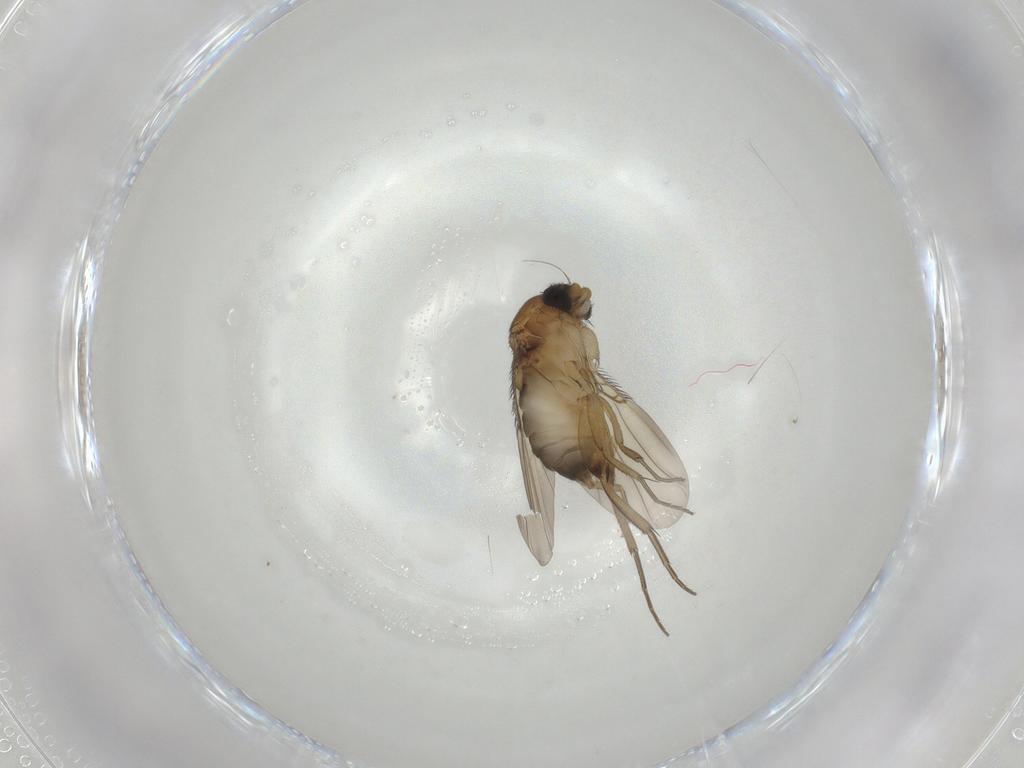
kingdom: Animalia
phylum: Arthropoda
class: Insecta
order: Diptera
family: Phoridae
